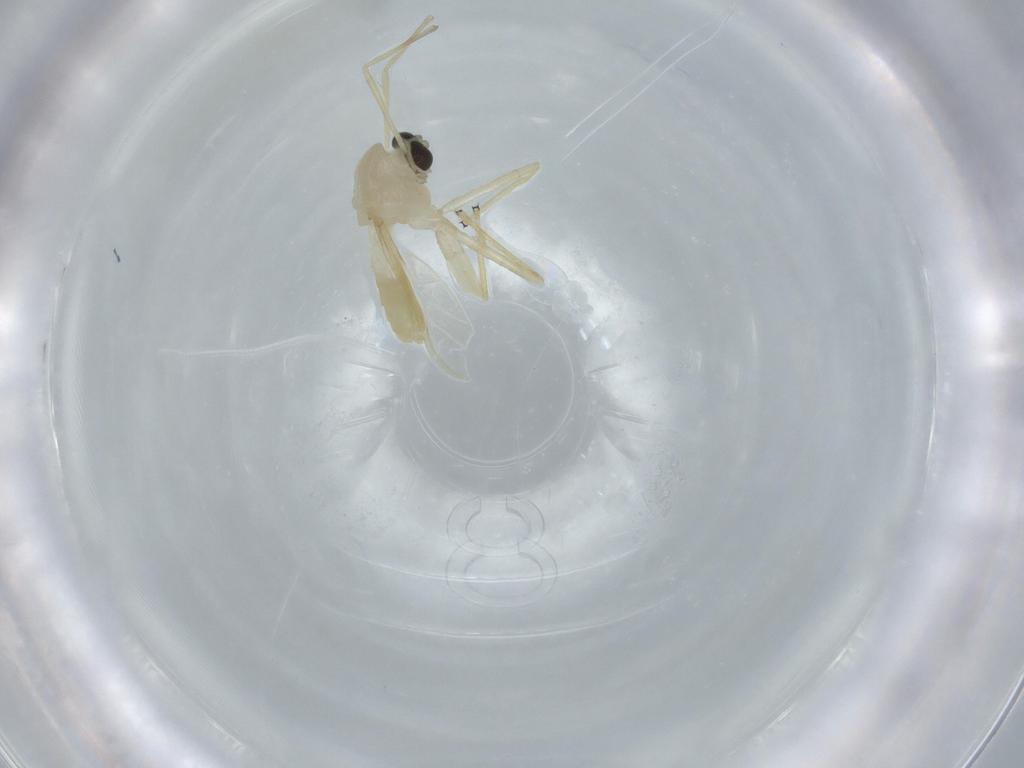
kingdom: Animalia
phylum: Arthropoda
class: Insecta
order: Diptera
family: Chironomidae
